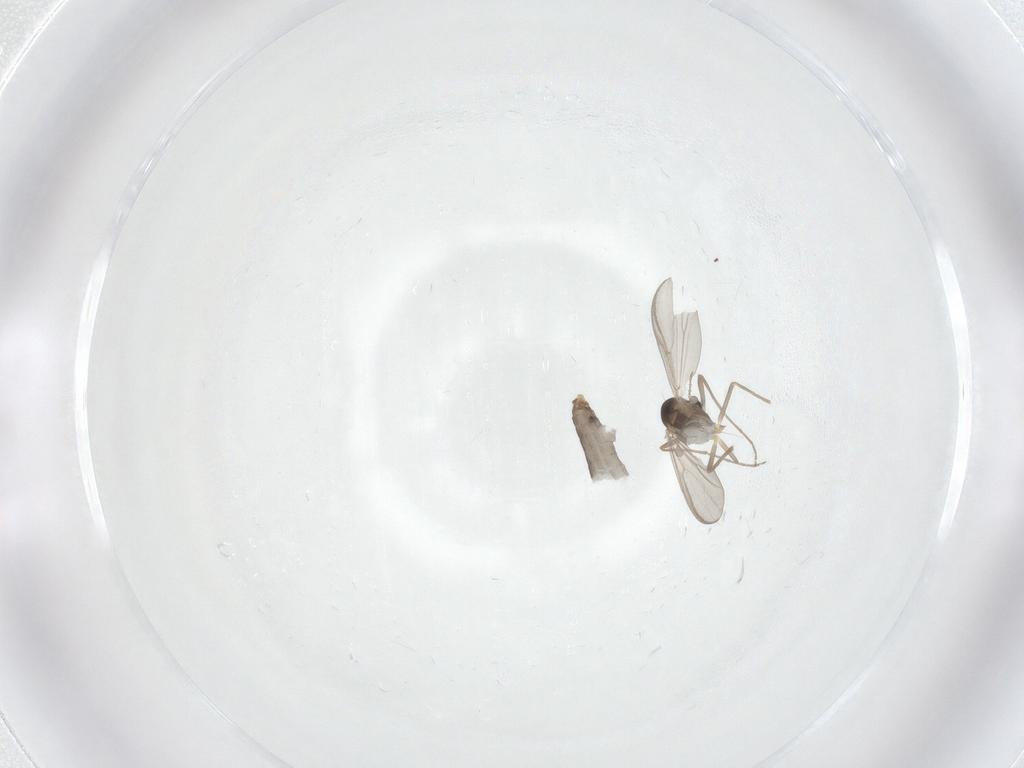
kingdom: Animalia
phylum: Arthropoda
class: Insecta
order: Diptera
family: Chironomidae
